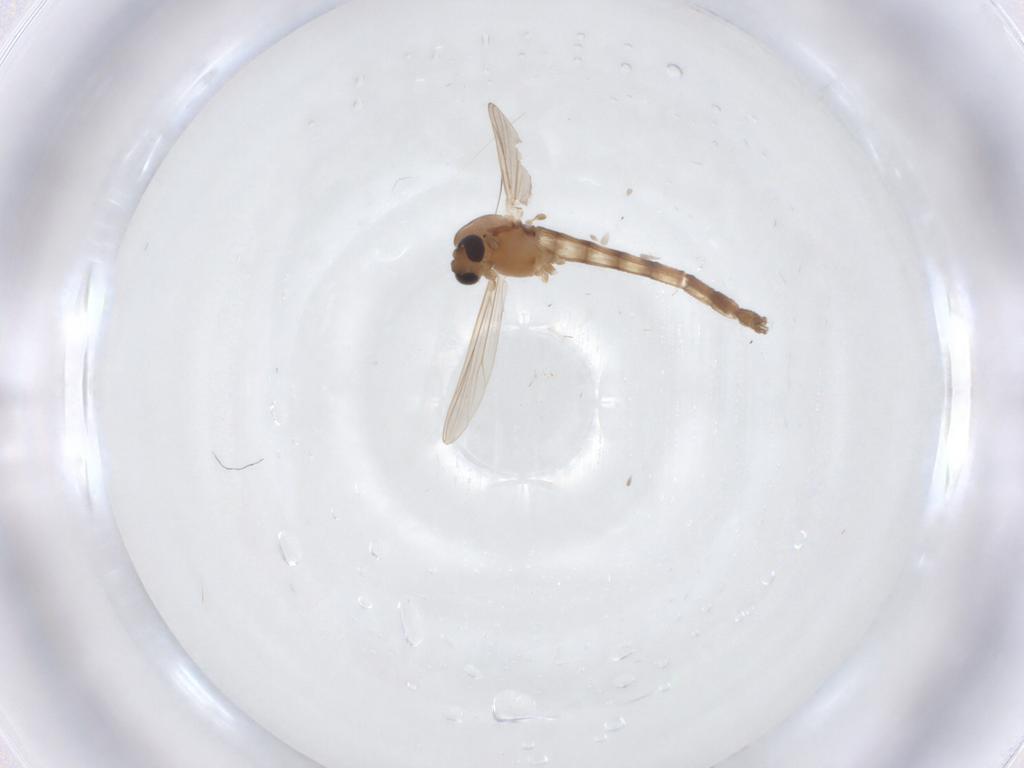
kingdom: Animalia
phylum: Arthropoda
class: Insecta
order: Diptera
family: Chironomidae
